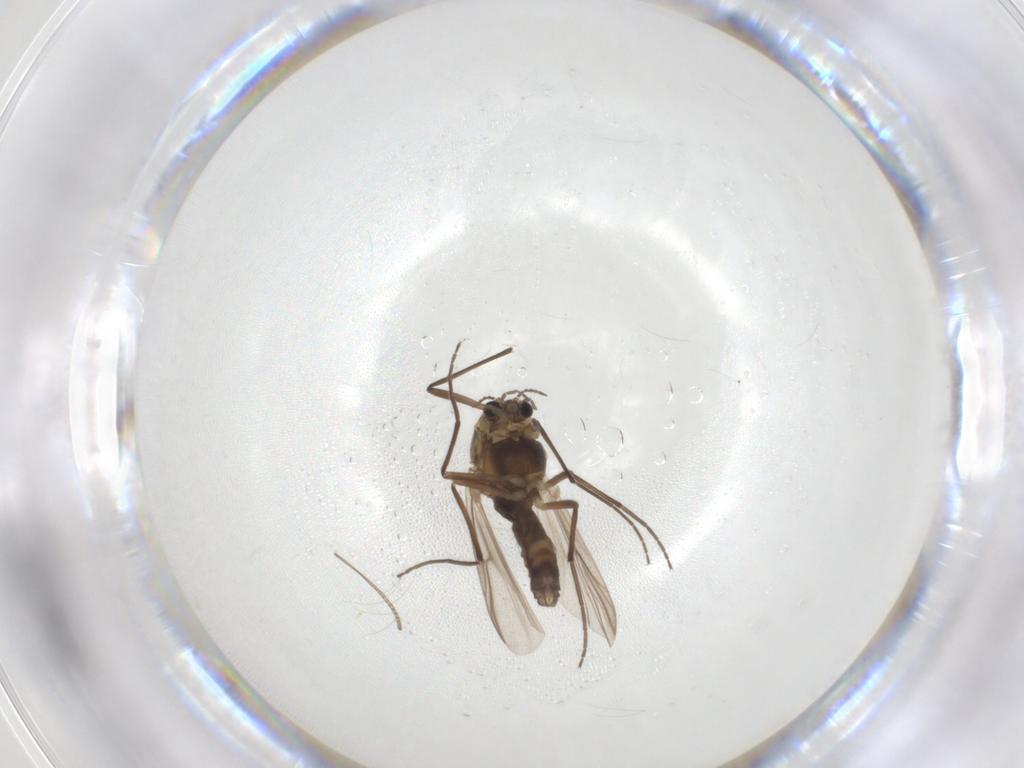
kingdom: Animalia
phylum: Arthropoda
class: Insecta
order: Diptera
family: Chironomidae
